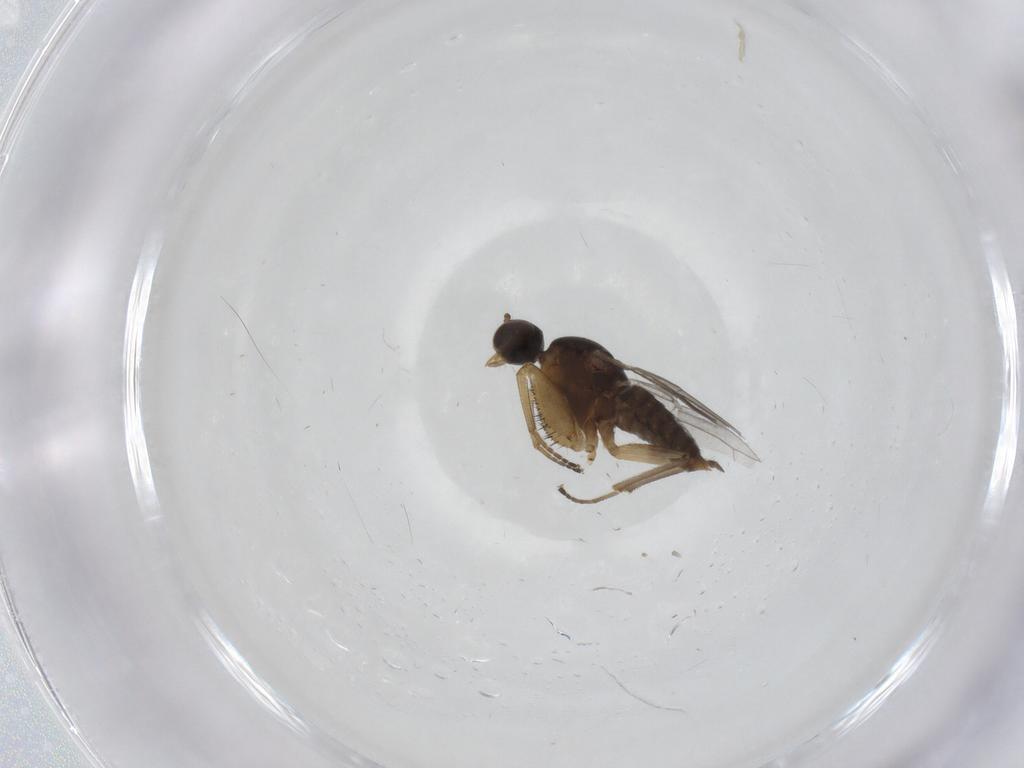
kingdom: Animalia
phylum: Arthropoda
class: Insecta
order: Diptera
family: Empididae
